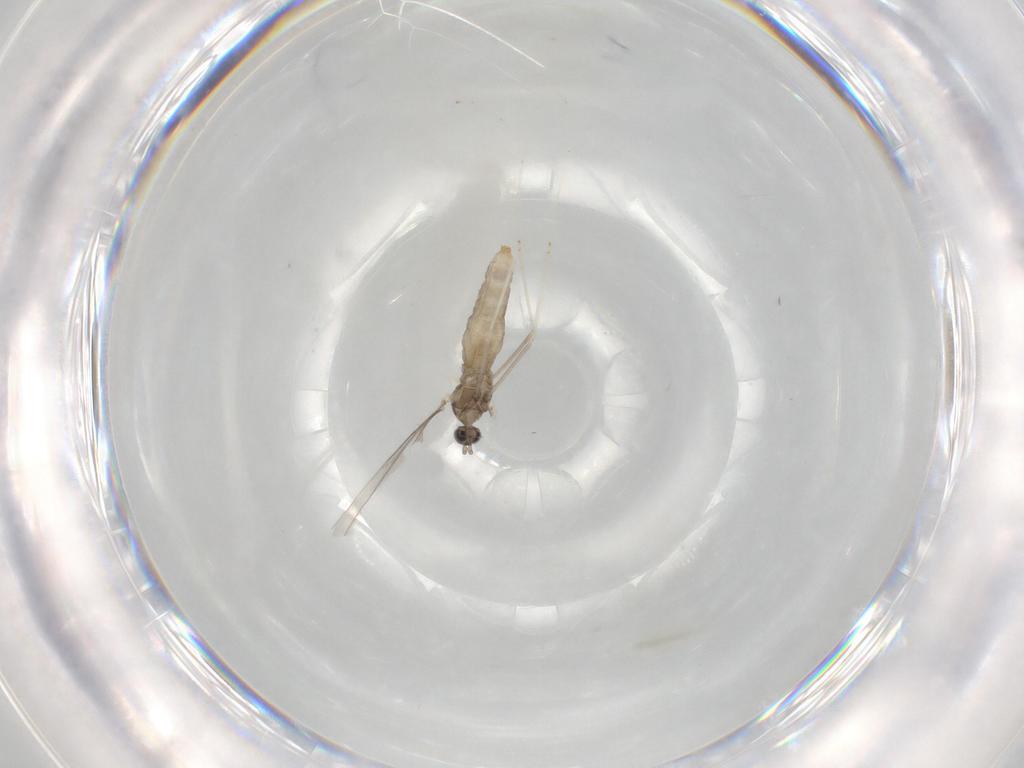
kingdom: Animalia
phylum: Arthropoda
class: Insecta
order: Diptera
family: Cecidomyiidae
